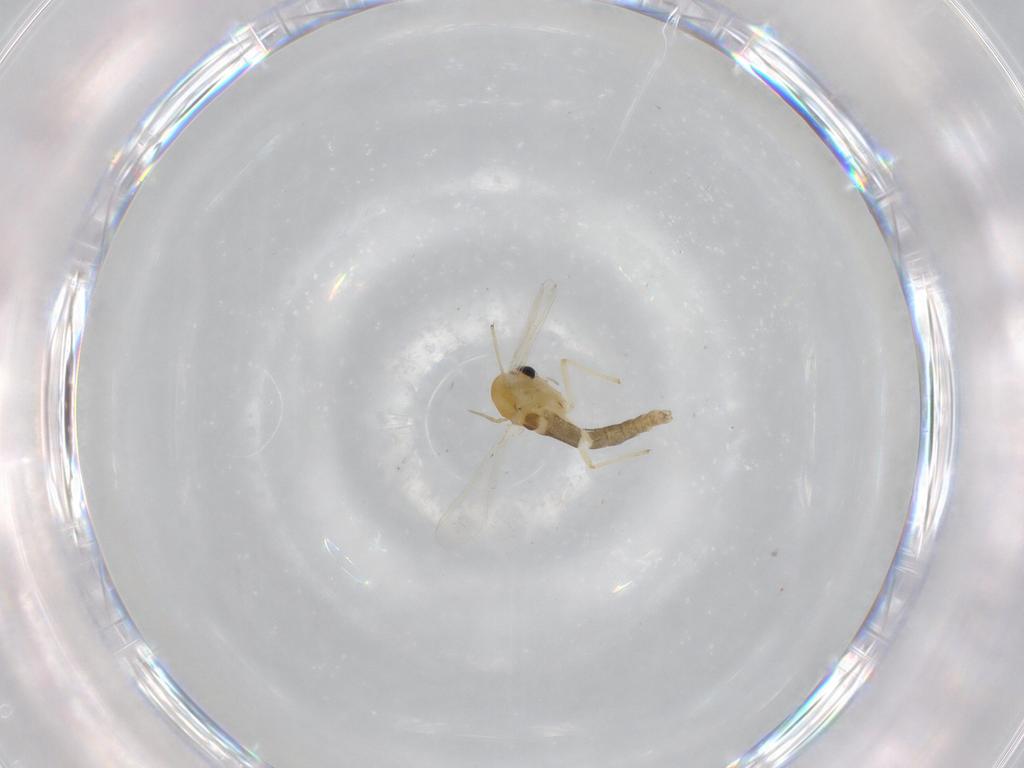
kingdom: Animalia
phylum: Arthropoda
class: Insecta
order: Diptera
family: Chironomidae
